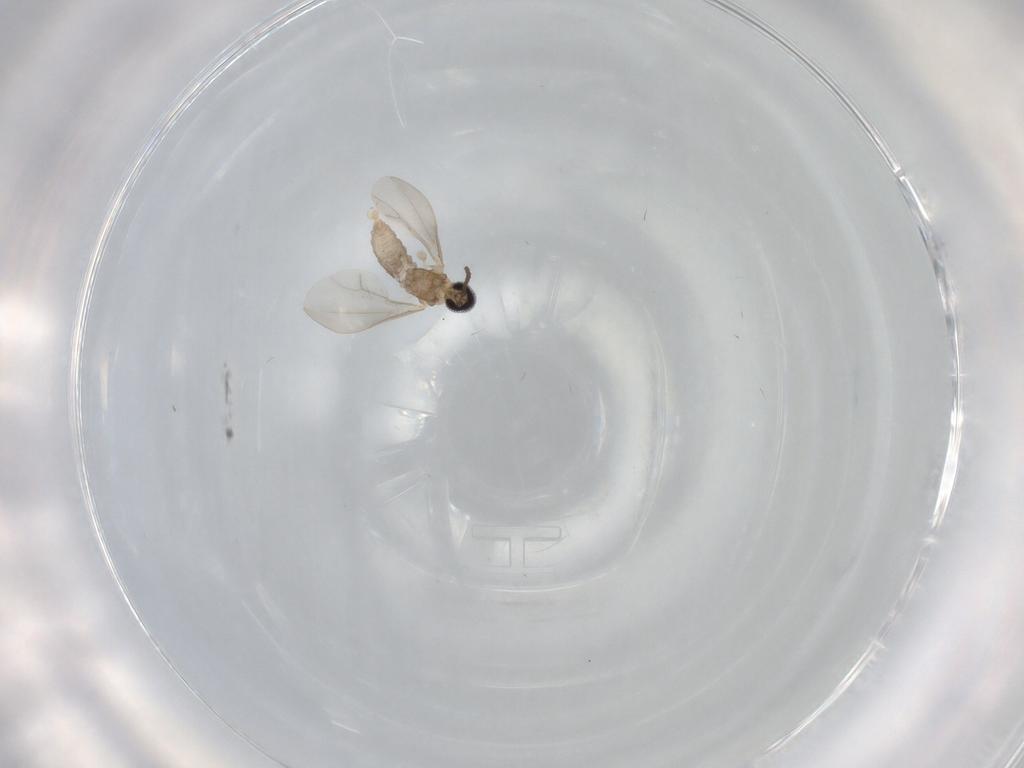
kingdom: Animalia
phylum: Arthropoda
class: Insecta
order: Diptera
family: Cecidomyiidae
